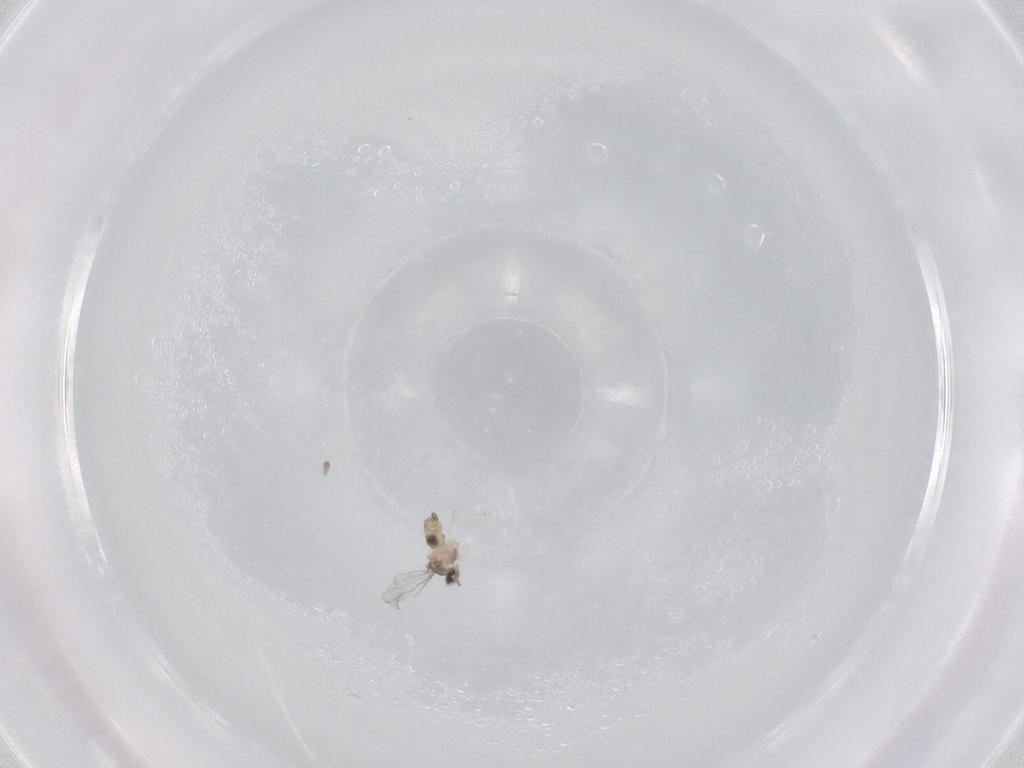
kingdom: Animalia
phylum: Arthropoda
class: Insecta
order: Diptera
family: Cecidomyiidae
